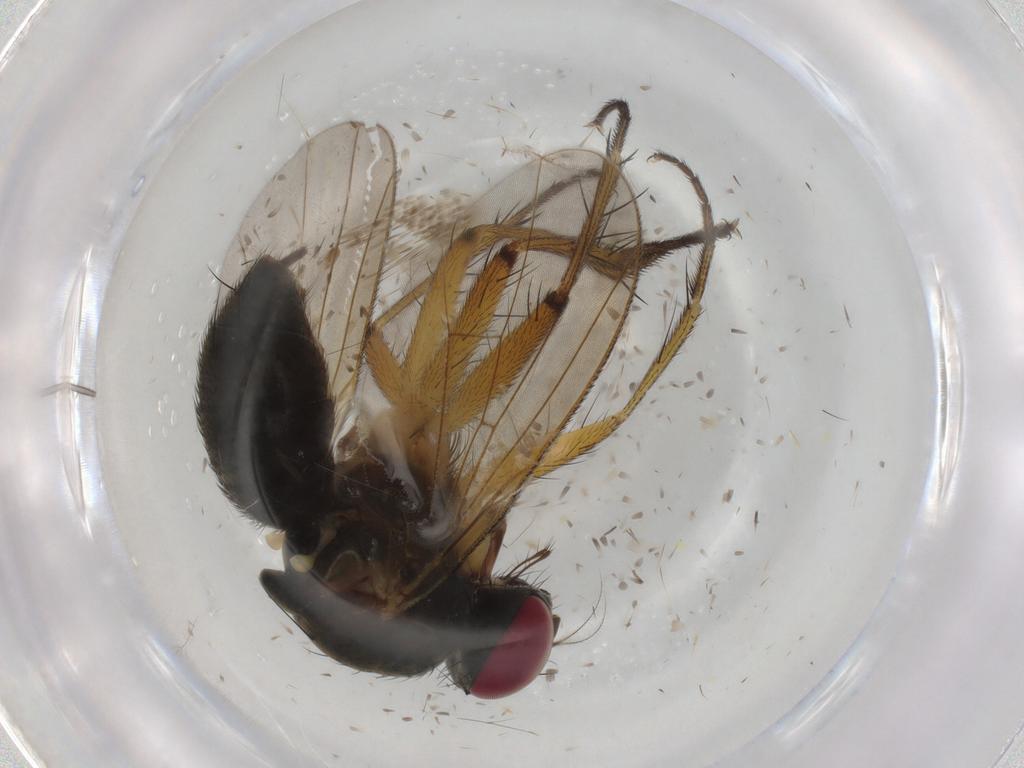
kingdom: Animalia
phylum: Arthropoda
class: Insecta
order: Diptera
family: Muscidae
